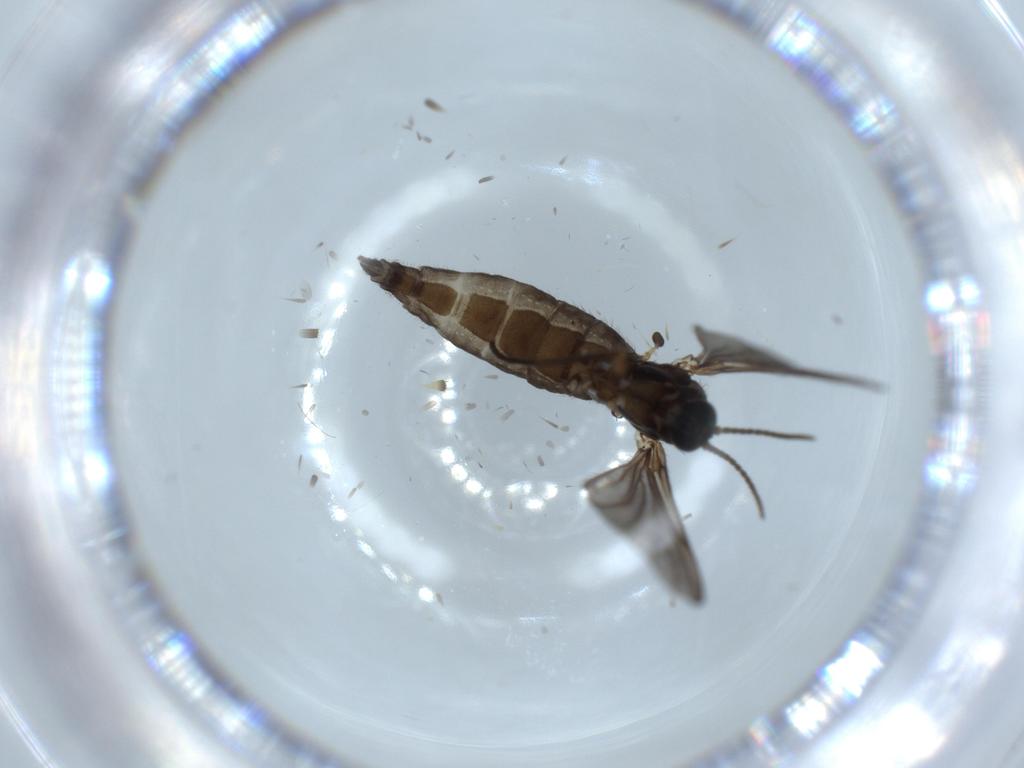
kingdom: Animalia
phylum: Arthropoda
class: Insecta
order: Diptera
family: Sciaridae
